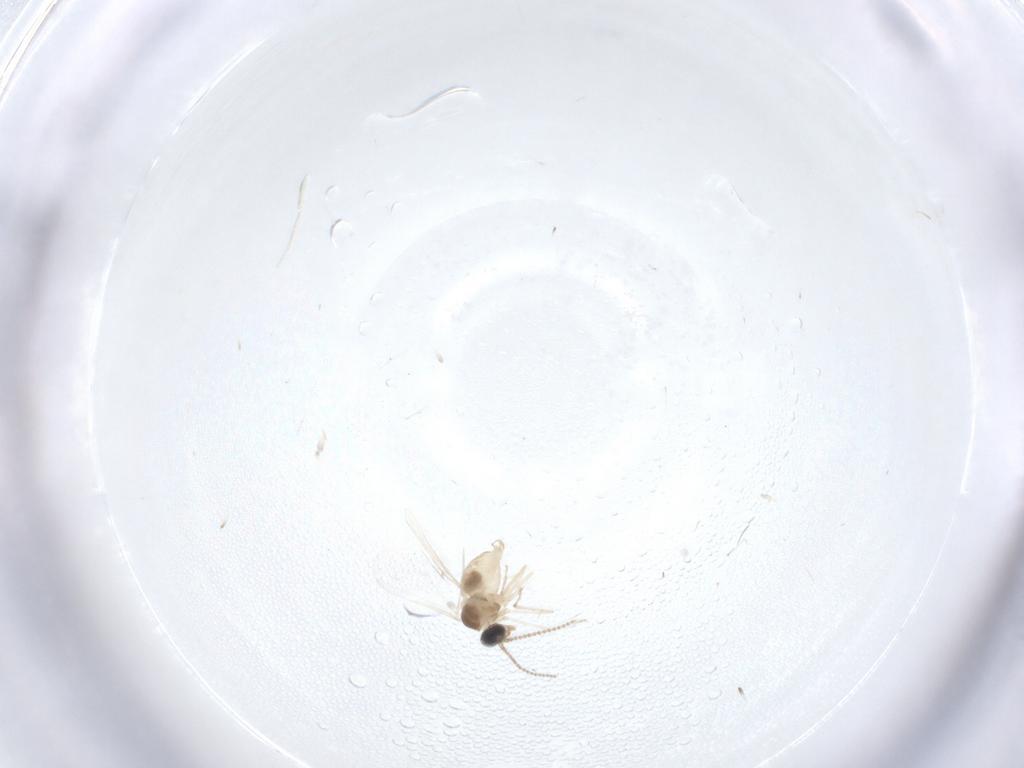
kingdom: Animalia
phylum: Arthropoda
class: Insecta
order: Diptera
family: Cecidomyiidae
